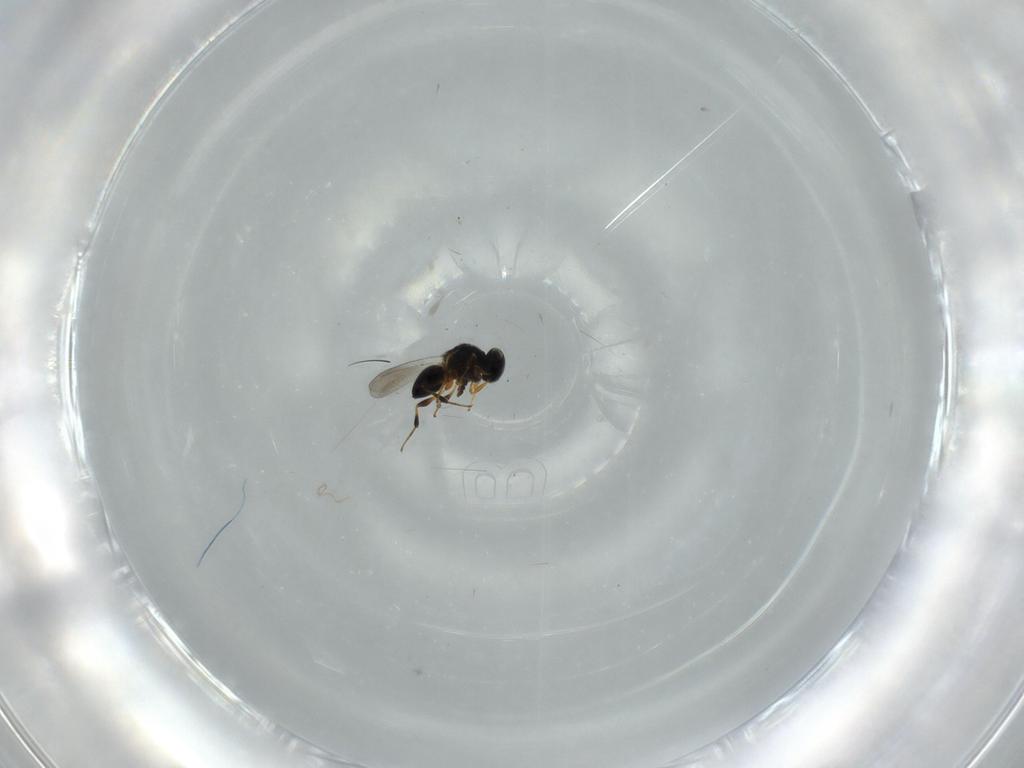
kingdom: Animalia
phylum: Arthropoda
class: Insecta
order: Hymenoptera
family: Platygastridae
